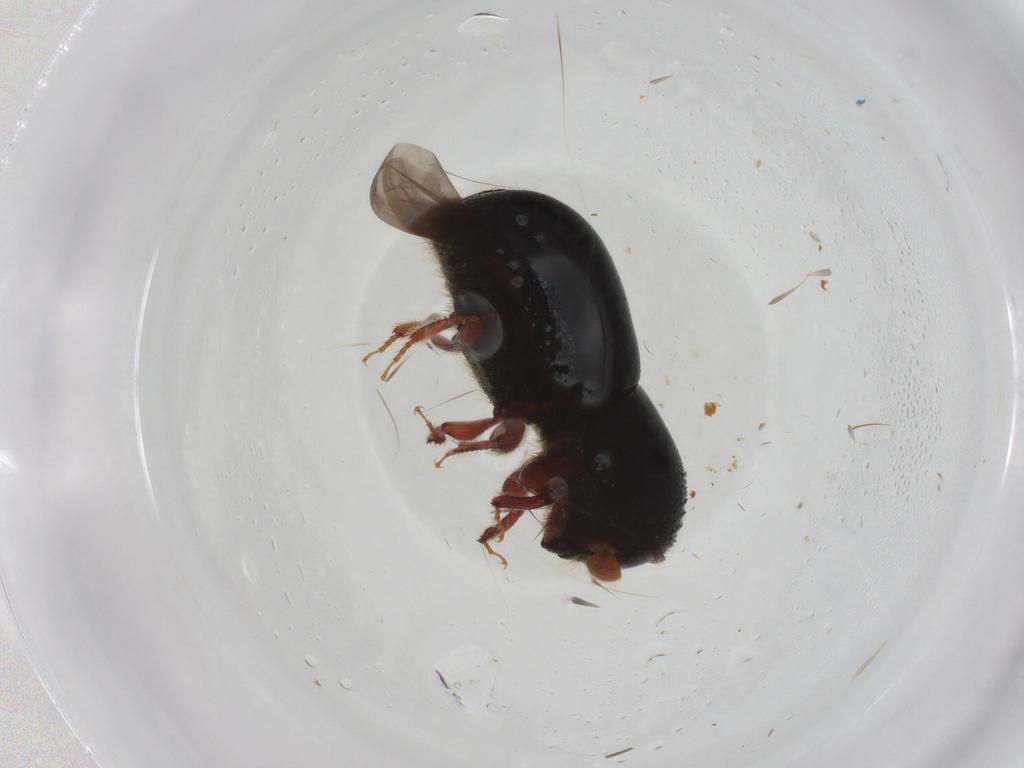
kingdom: Animalia
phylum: Arthropoda
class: Insecta
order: Coleoptera
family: Curculionidae
